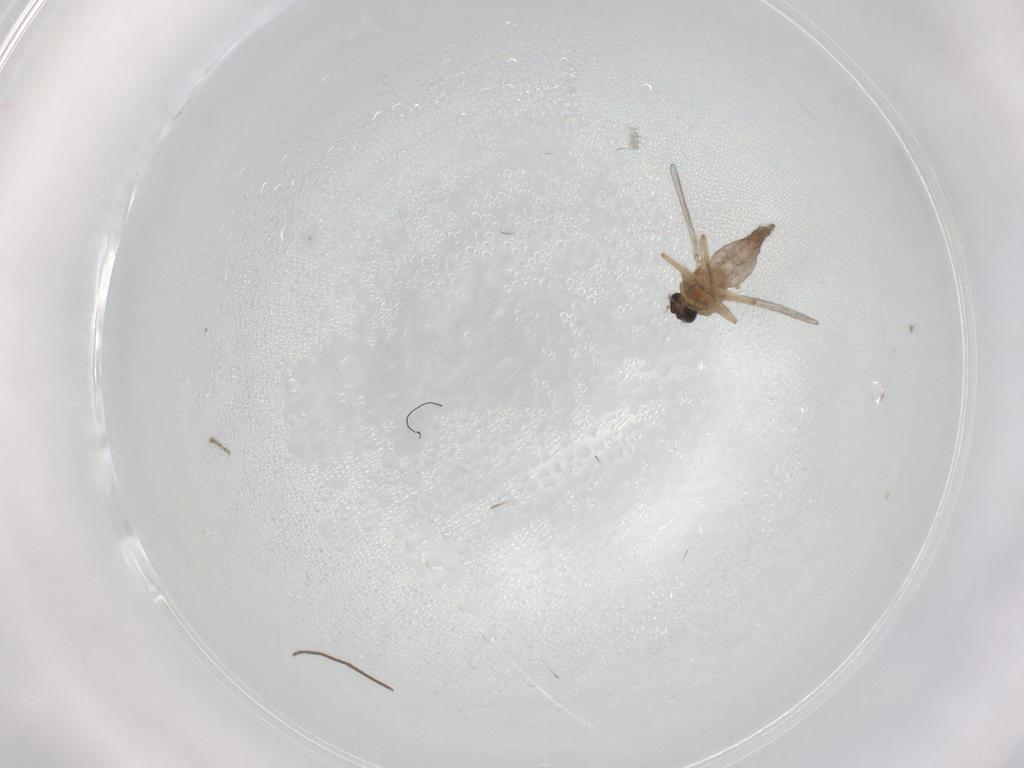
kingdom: Animalia
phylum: Arthropoda
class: Insecta
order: Diptera
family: Chironomidae
